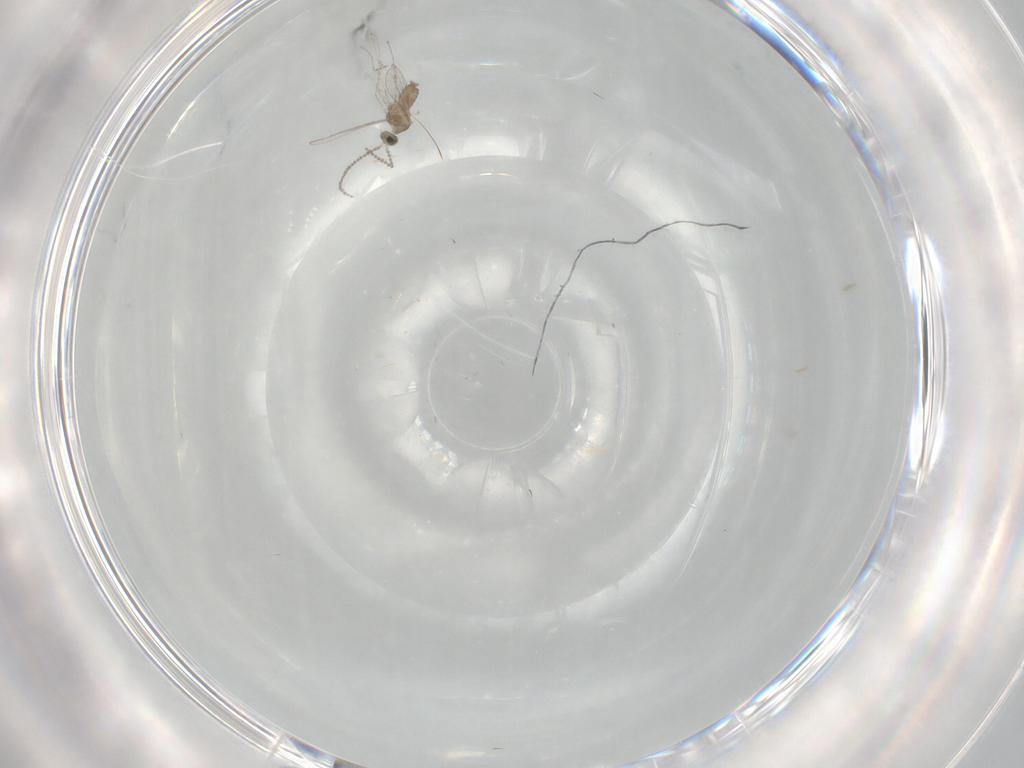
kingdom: Animalia
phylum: Arthropoda
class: Insecta
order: Diptera
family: Cecidomyiidae
